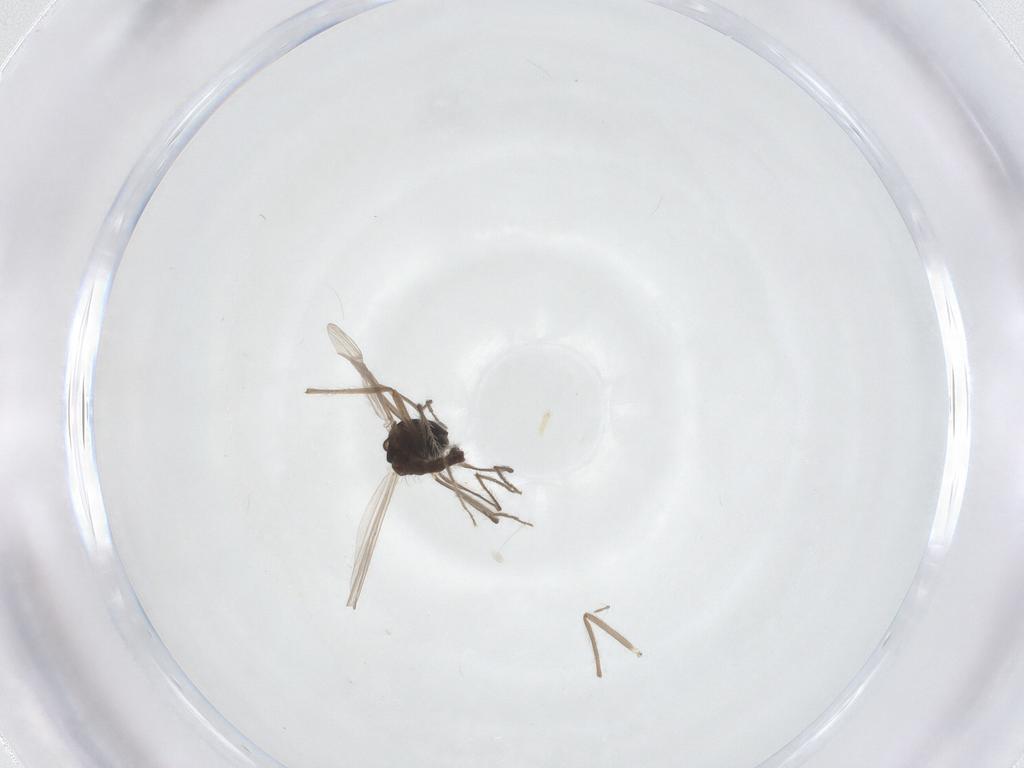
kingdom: Animalia
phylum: Arthropoda
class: Insecta
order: Diptera
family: Chironomidae
